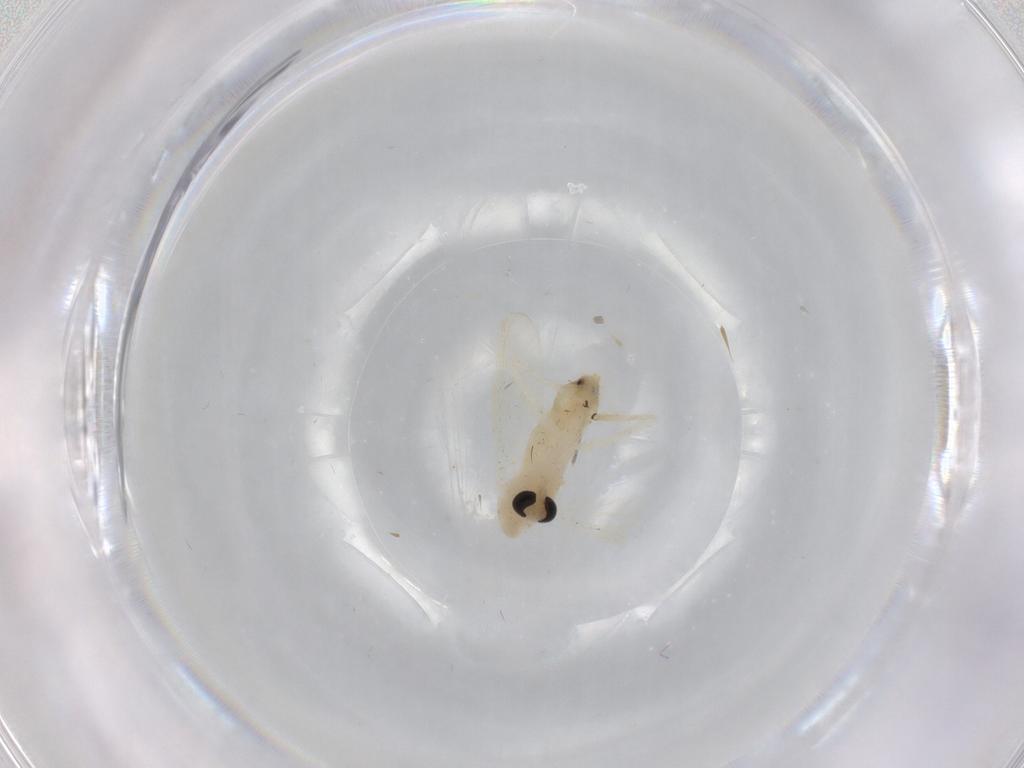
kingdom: Animalia
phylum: Arthropoda
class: Insecta
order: Diptera
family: Chironomidae
